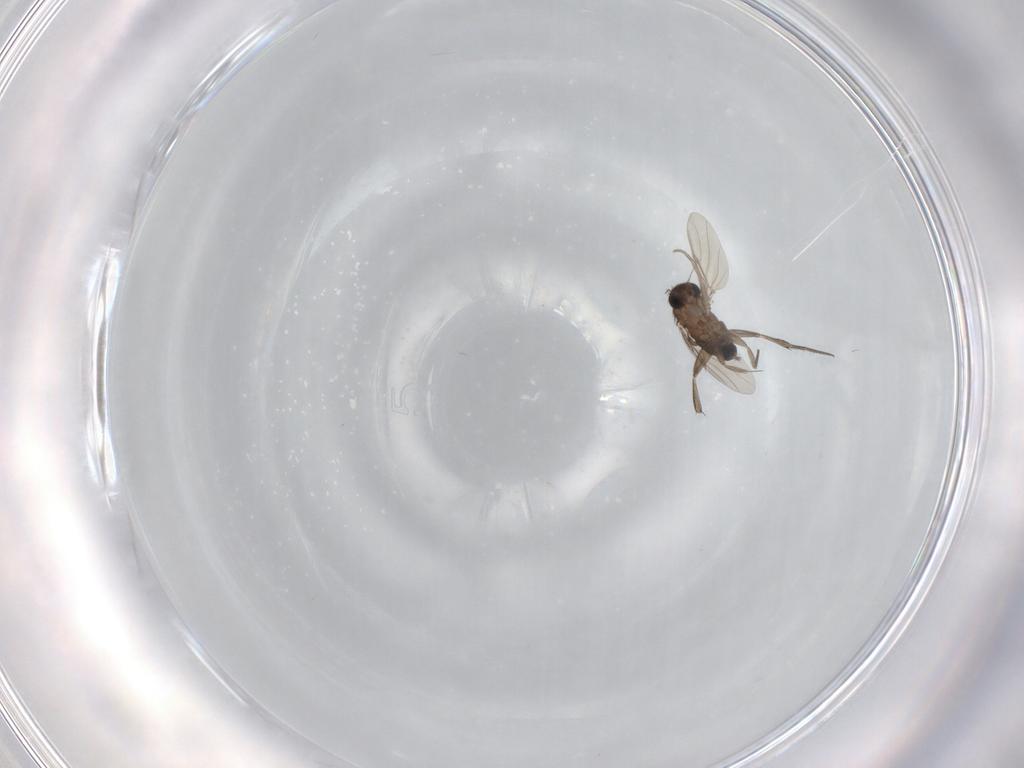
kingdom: Animalia
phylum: Arthropoda
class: Insecta
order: Diptera
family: Phoridae
